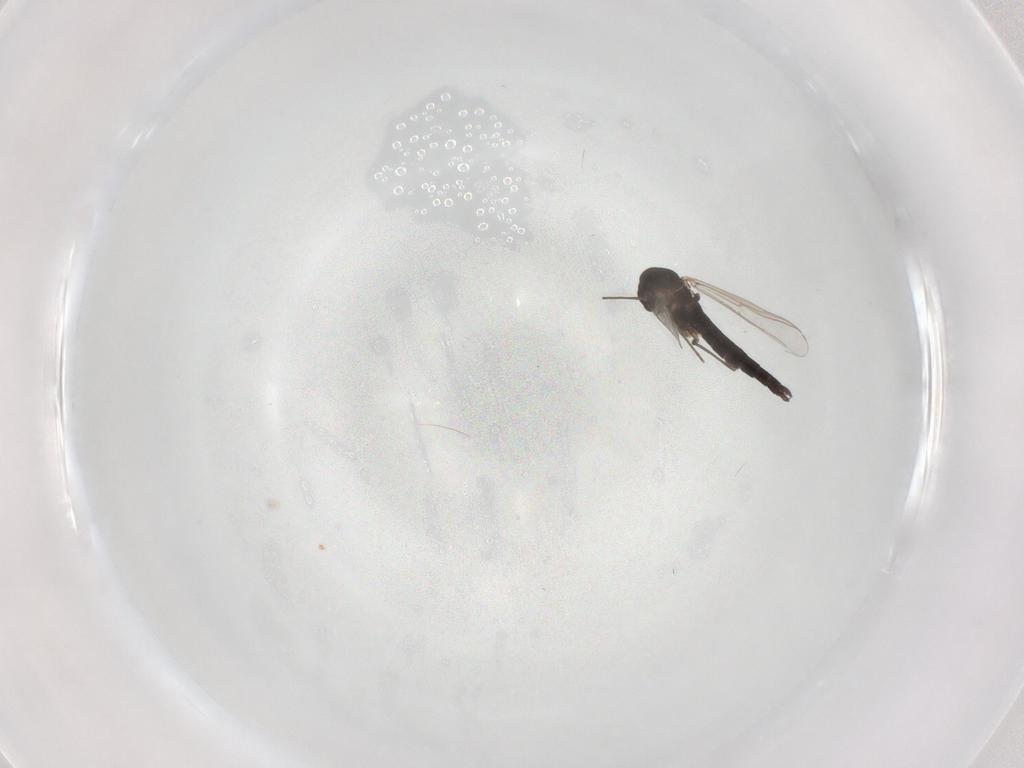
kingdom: Animalia
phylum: Arthropoda
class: Insecta
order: Diptera
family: Chironomidae
